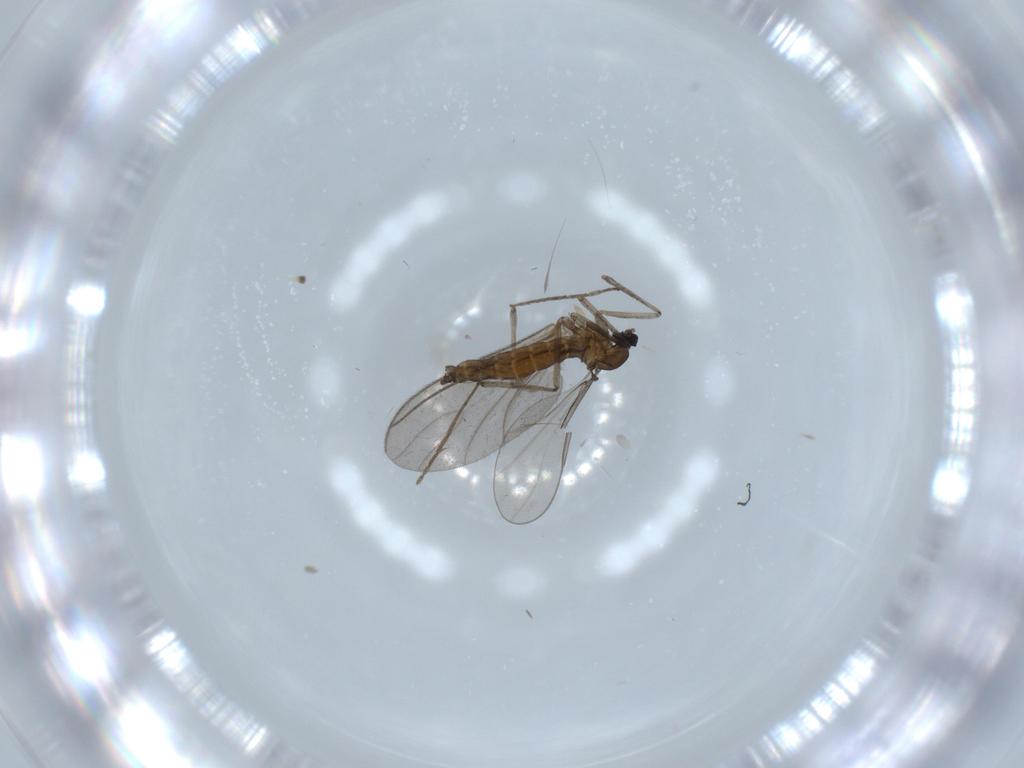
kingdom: Animalia
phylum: Arthropoda
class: Insecta
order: Diptera
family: Cecidomyiidae
